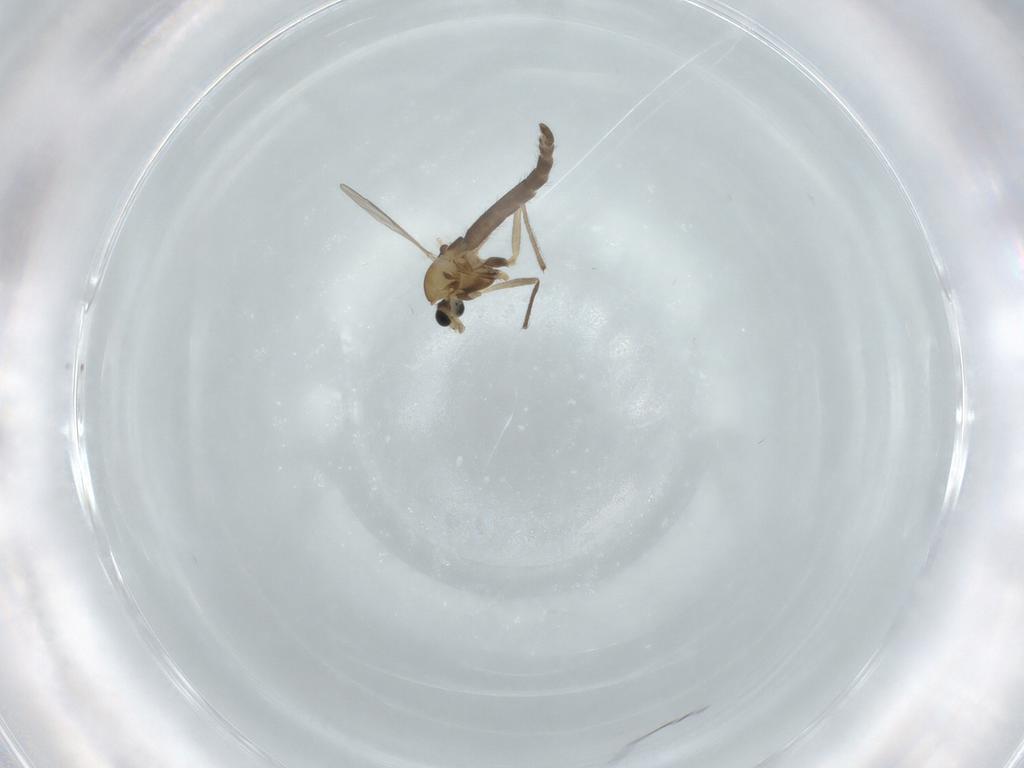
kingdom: Animalia
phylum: Arthropoda
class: Insecta
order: Diptera
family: Chironomidae
